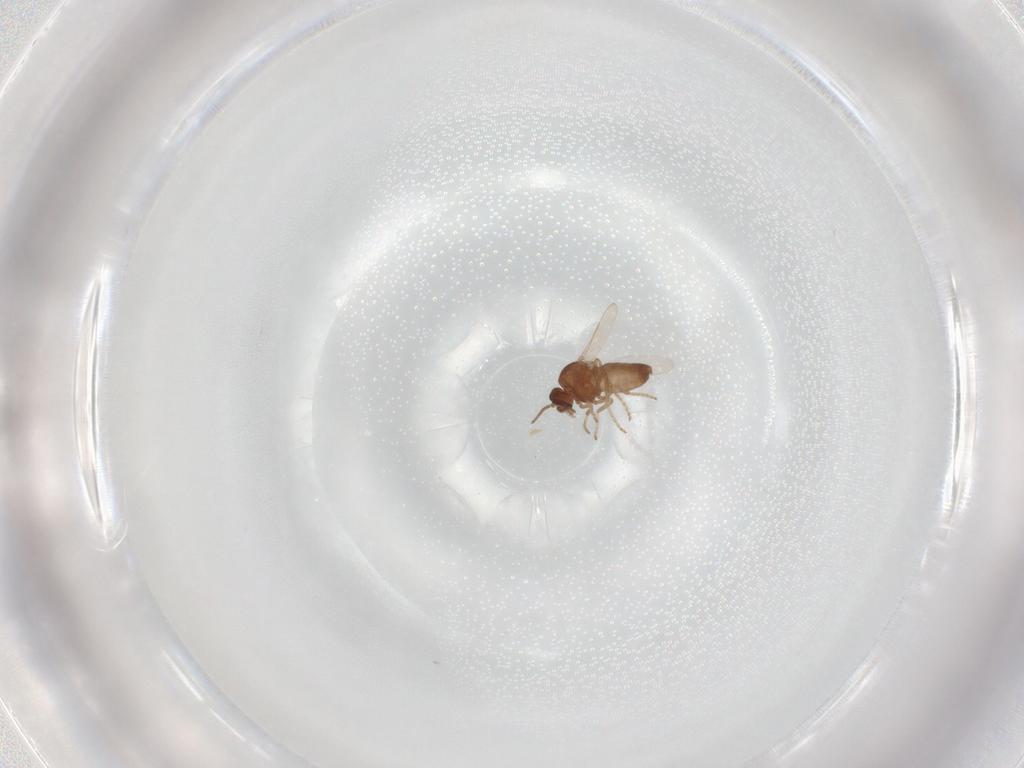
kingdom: Animalia
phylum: Arthropoda
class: Insecta
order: Diptera
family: Dolichopodidae
